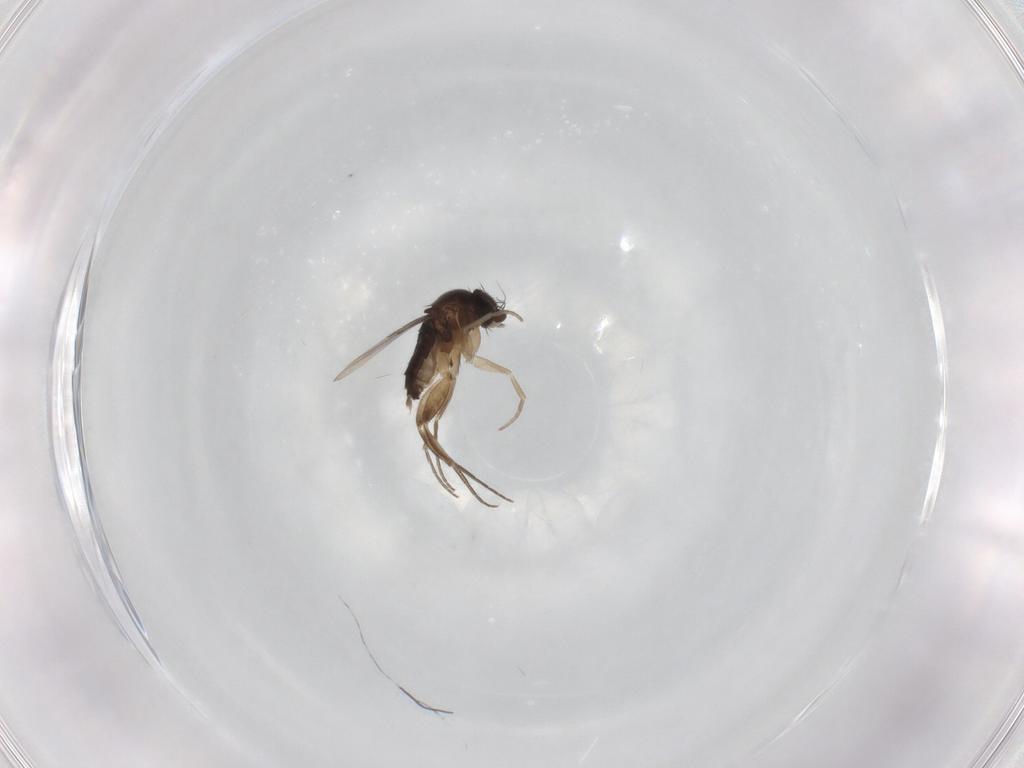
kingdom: Animalia
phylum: Arthropoda
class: Insecta
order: Diptera
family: Phoridae
